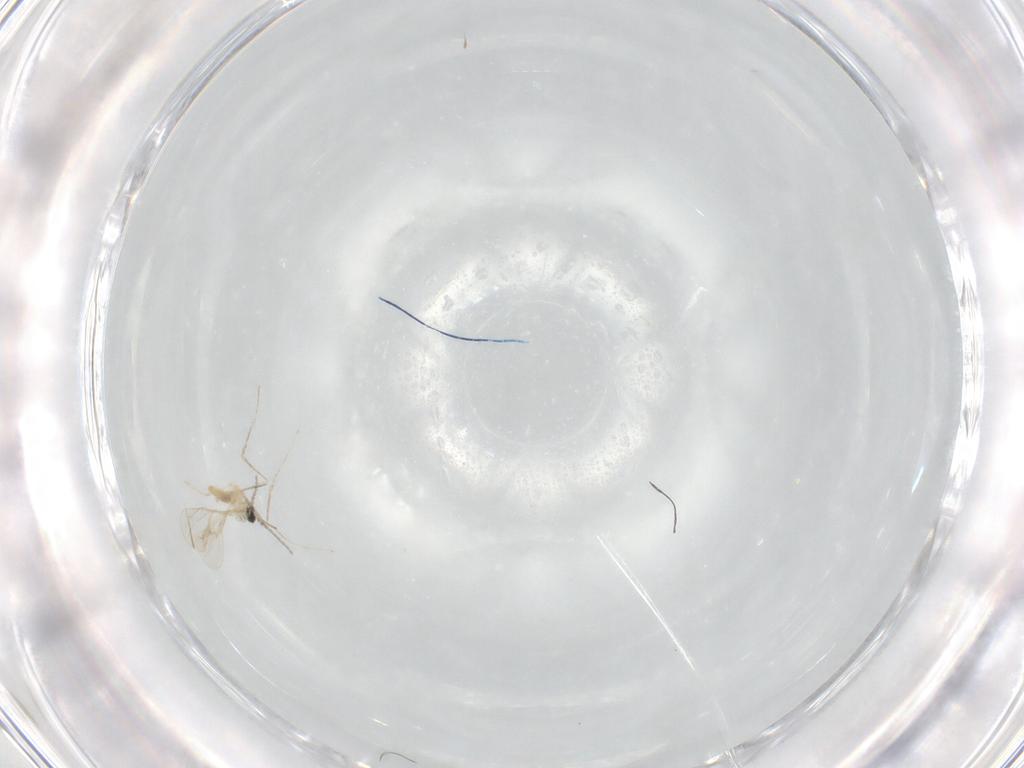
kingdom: Animalia
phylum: Arthropoda
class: Insecta
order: Diptera
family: Cecidomyiidae
